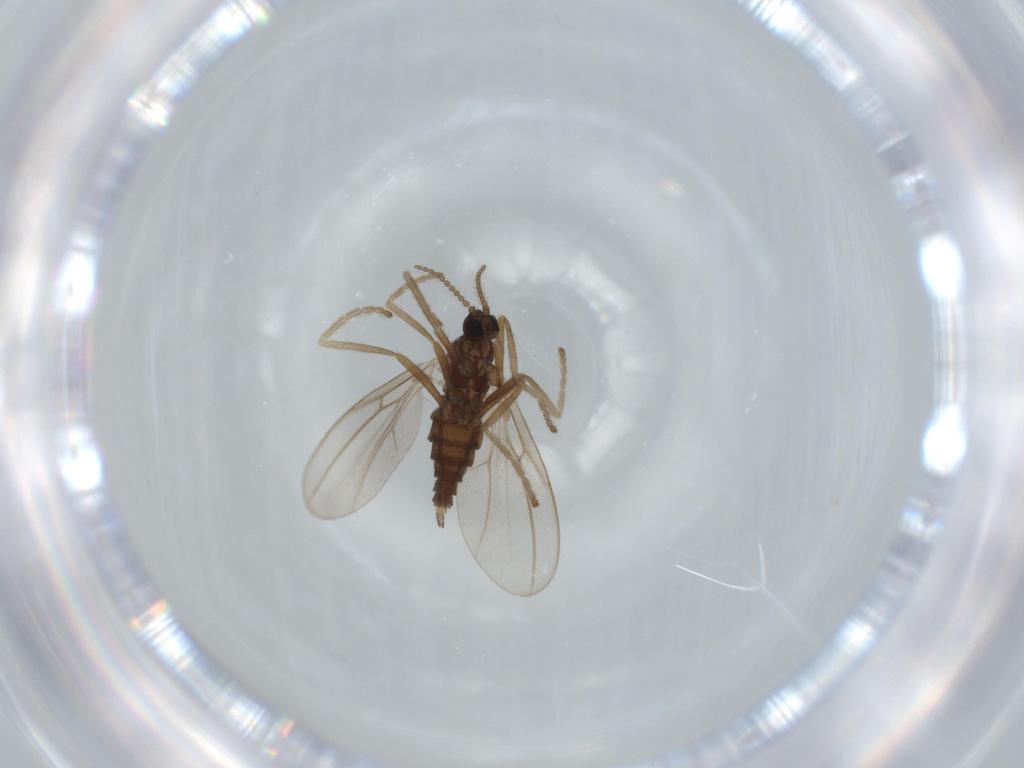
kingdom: Animalia
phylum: Arthropoda
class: Insecta
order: Diptera
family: Cecidomyiidae
